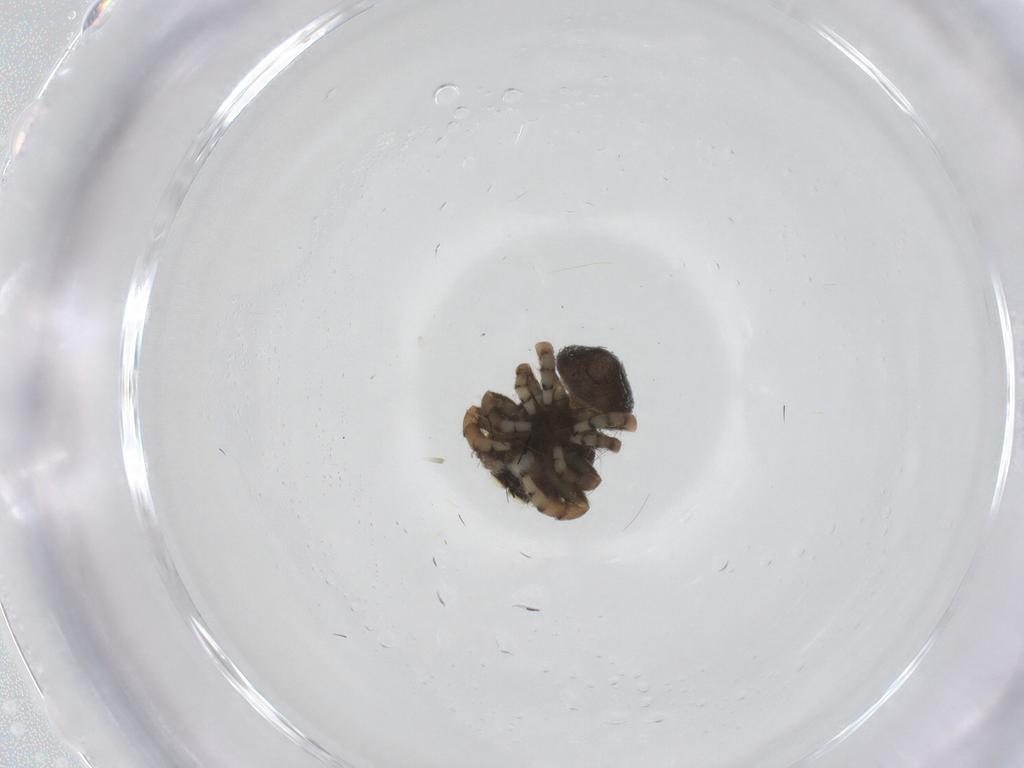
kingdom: Animalia
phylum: Arthropoda
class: Arachnida
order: Araneae
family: Salticidae
